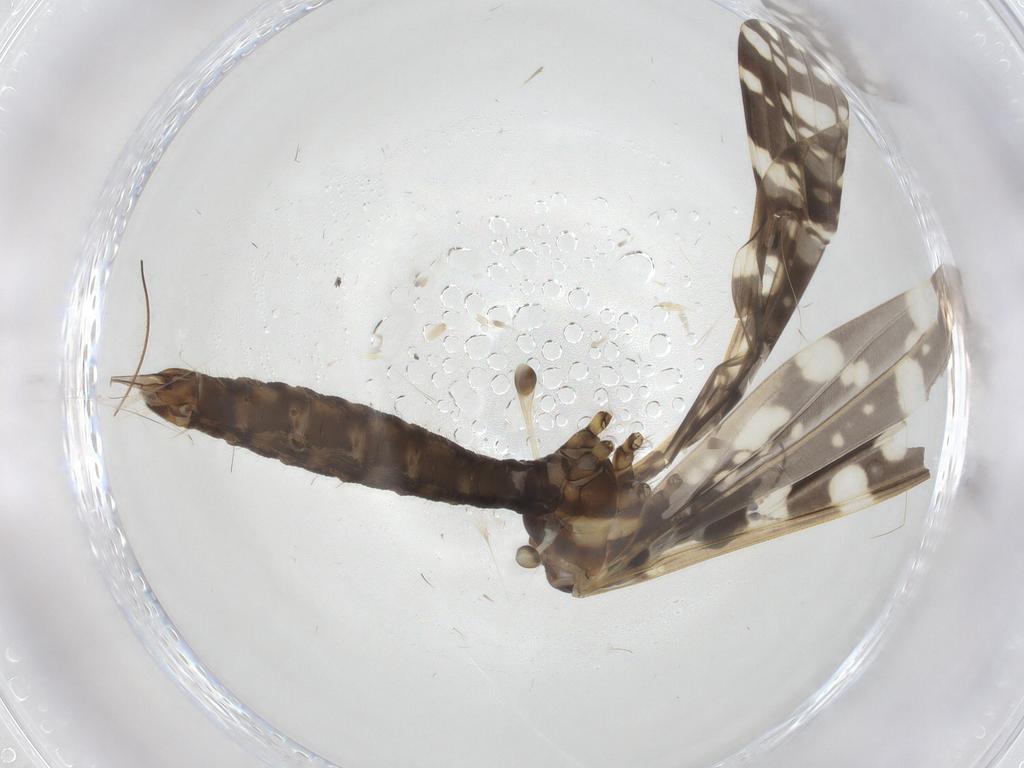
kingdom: Animalia
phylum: Arthropoda
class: Insecta
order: Diptera
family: Limoniidae
